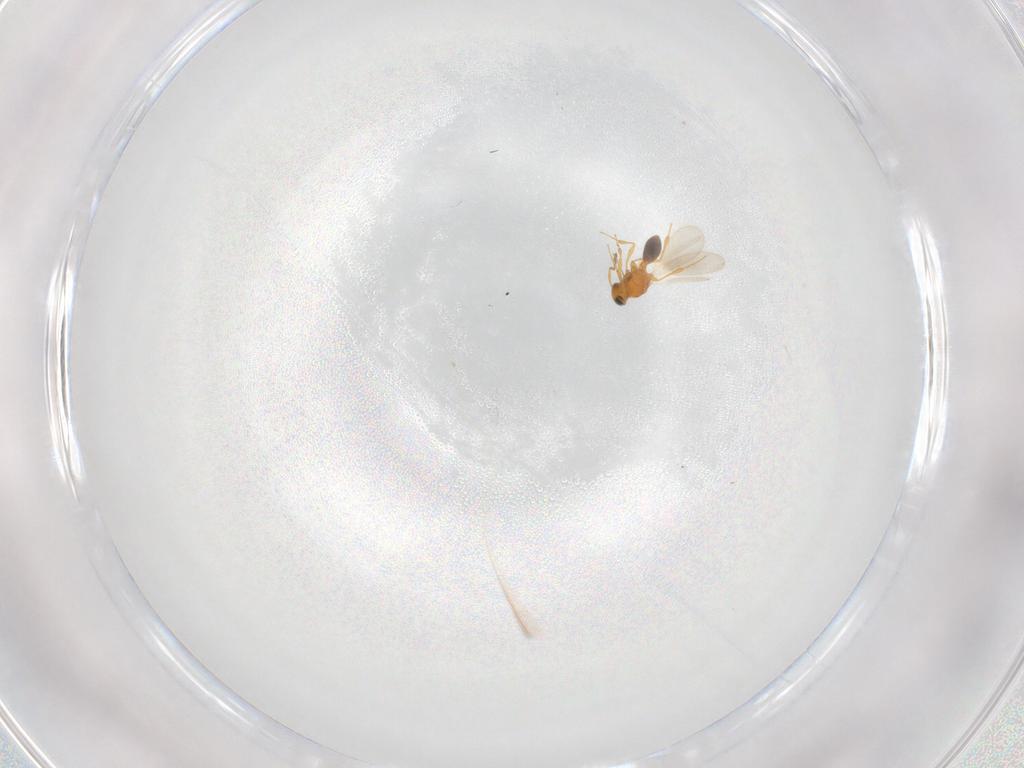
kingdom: Animalia
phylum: Arthropoda
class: Insecta
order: Hymenoptera
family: Platygastridae
